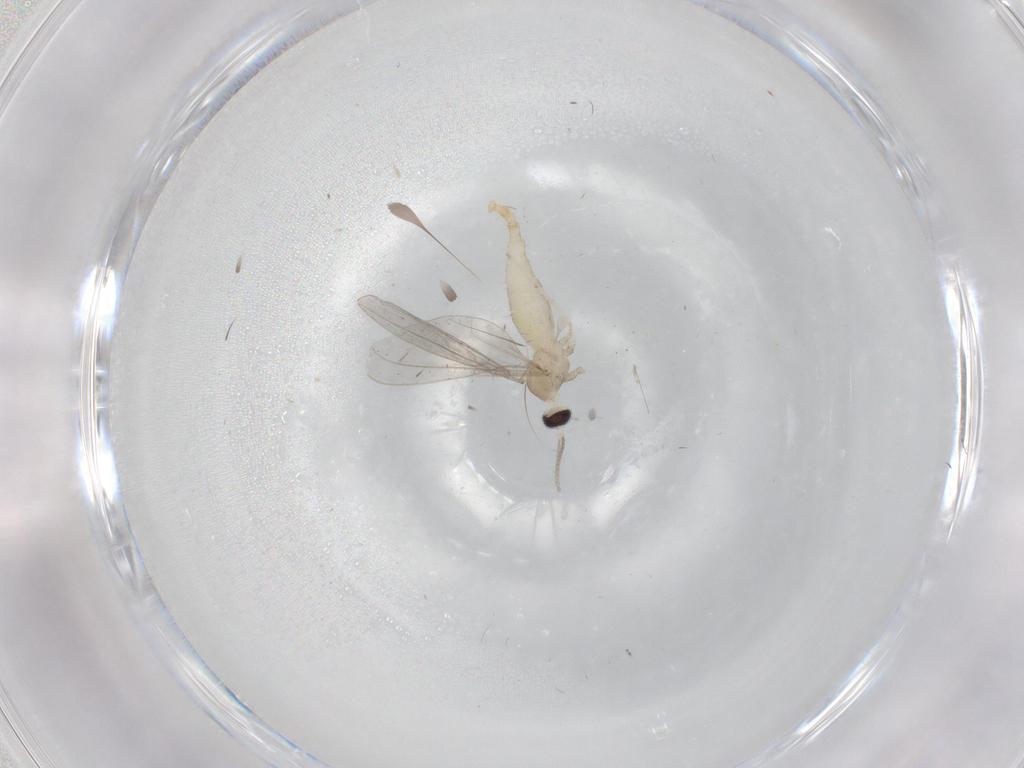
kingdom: Animalia
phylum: Arthropoda
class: Insecta
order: Diptera
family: Cecidomyiidae
